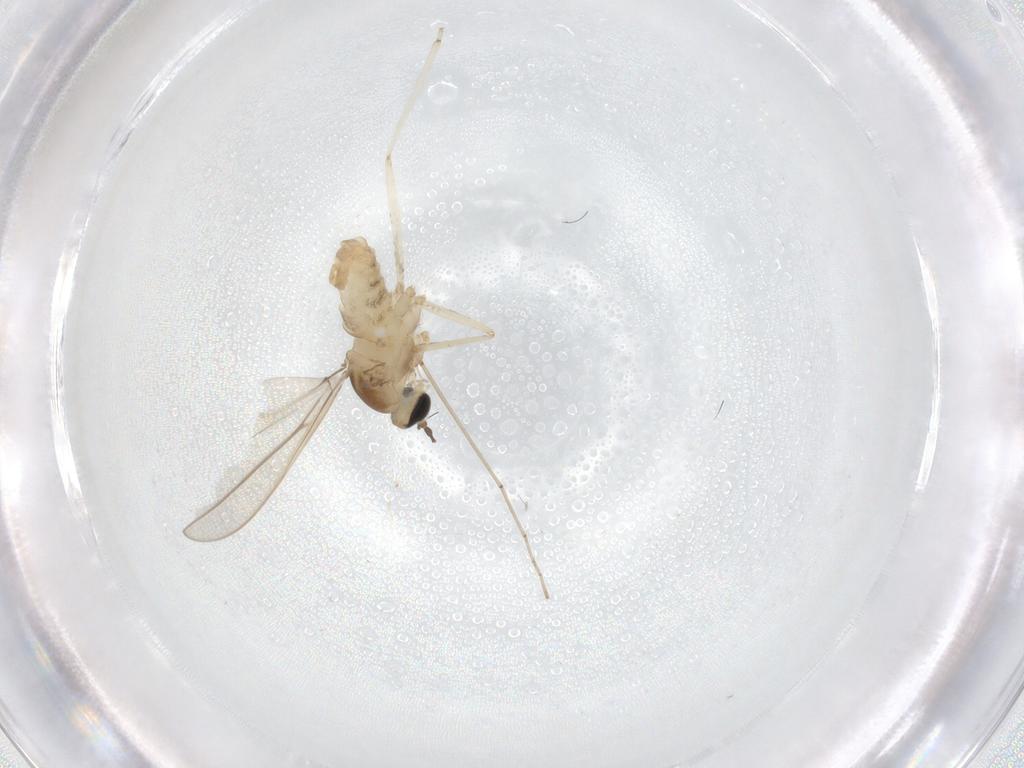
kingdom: Animalia
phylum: Arthropoda
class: Insecta
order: Diptera
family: Cecidomyiidae
